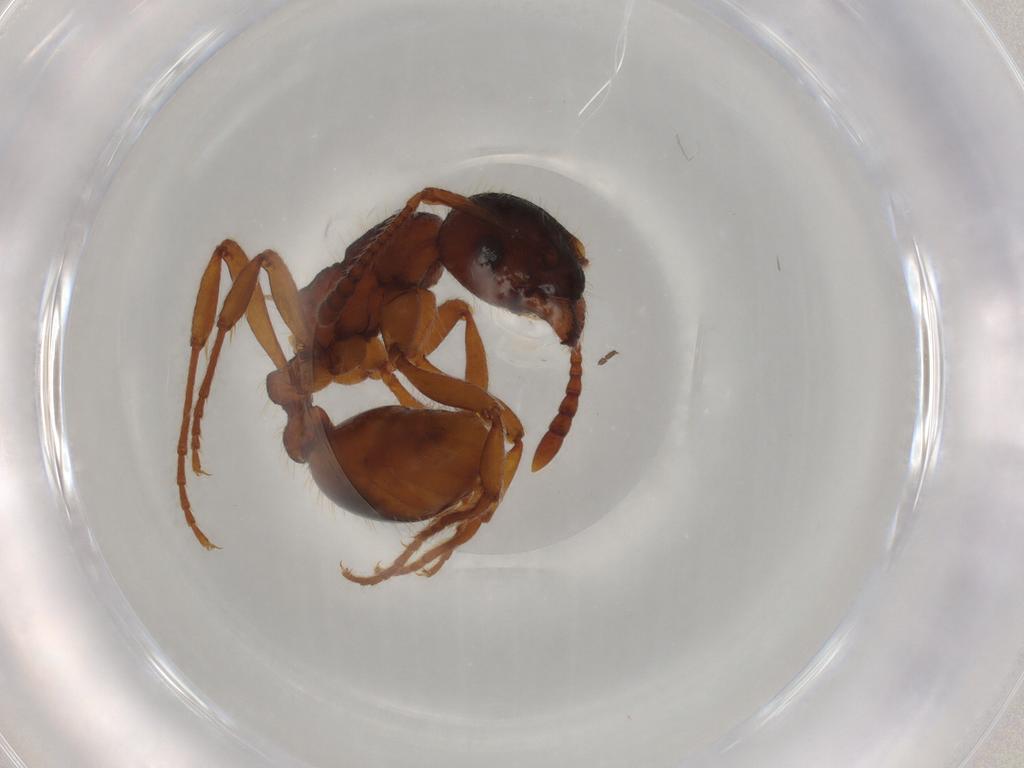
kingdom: Animalia
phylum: Arthropoda
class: Insecta
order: Hymenoptera
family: Formicidae
